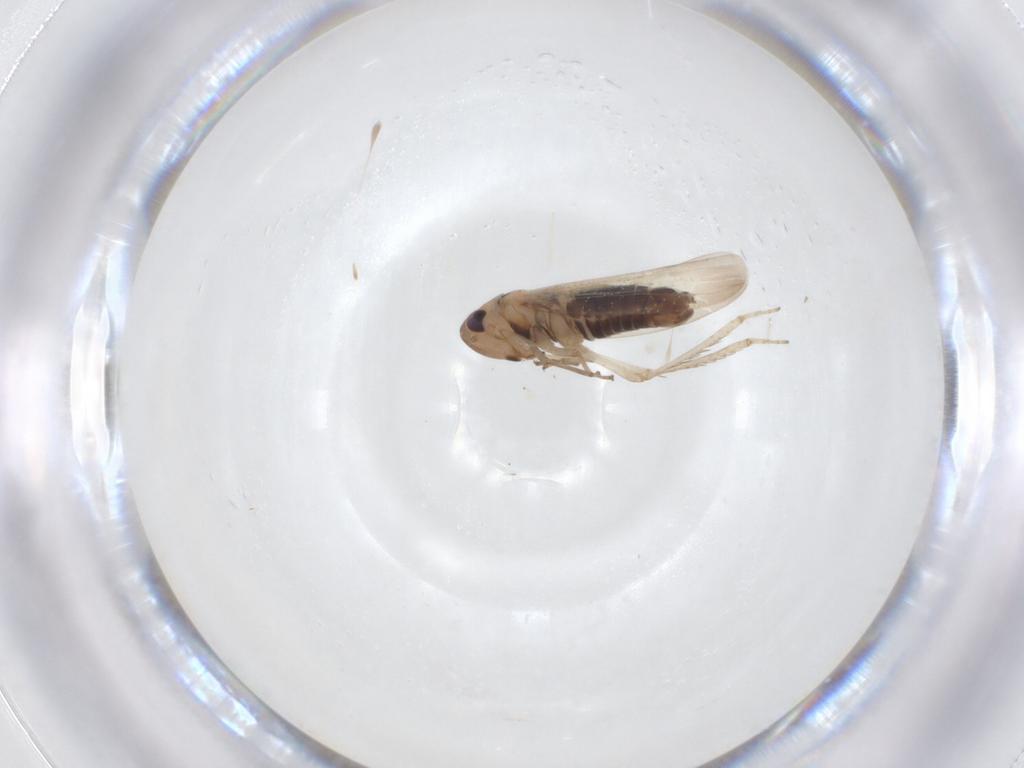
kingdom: Animalia
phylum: Arthropoda
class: Insecta
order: Hemiptera
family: Cicadellidae
